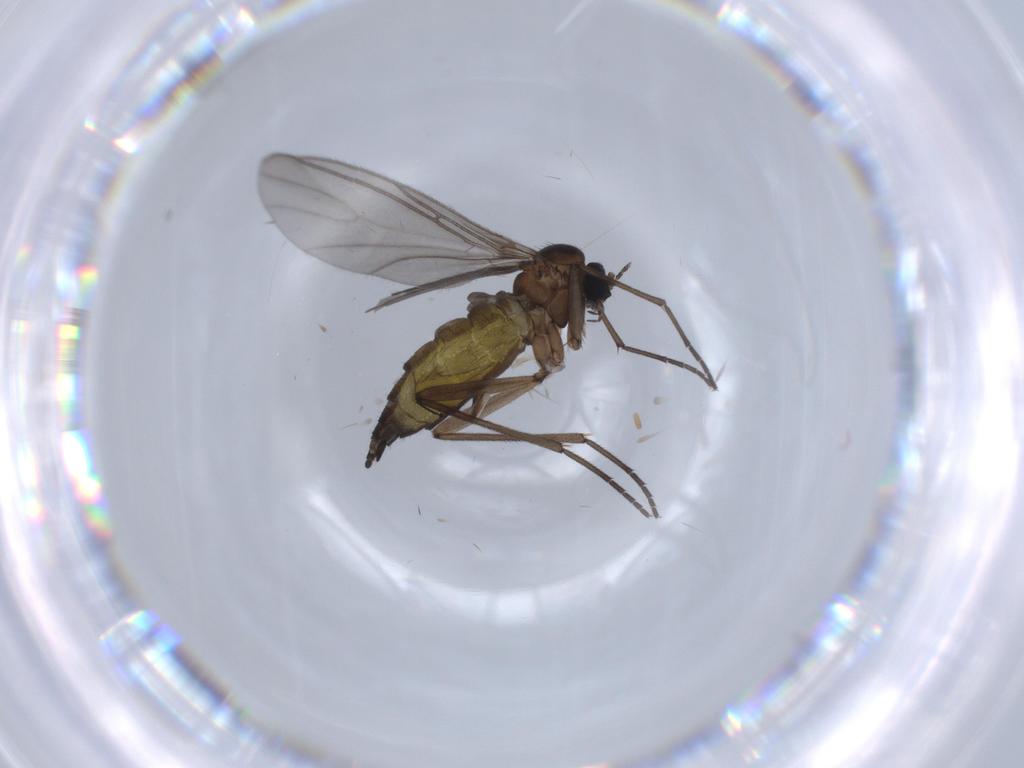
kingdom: Animalia
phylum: Arthropoda
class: Insecta
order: Diptera
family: Sciaridae
